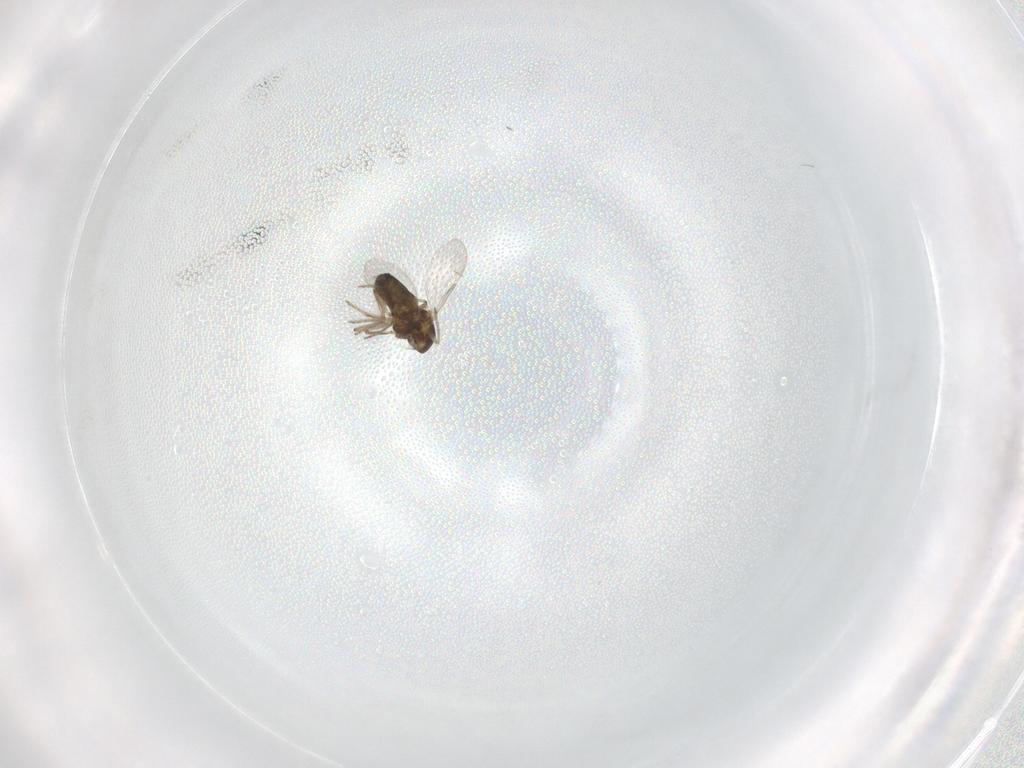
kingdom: Animalia
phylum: Arthropoda
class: Insecta
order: Diptera
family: Ceratopogonidae
